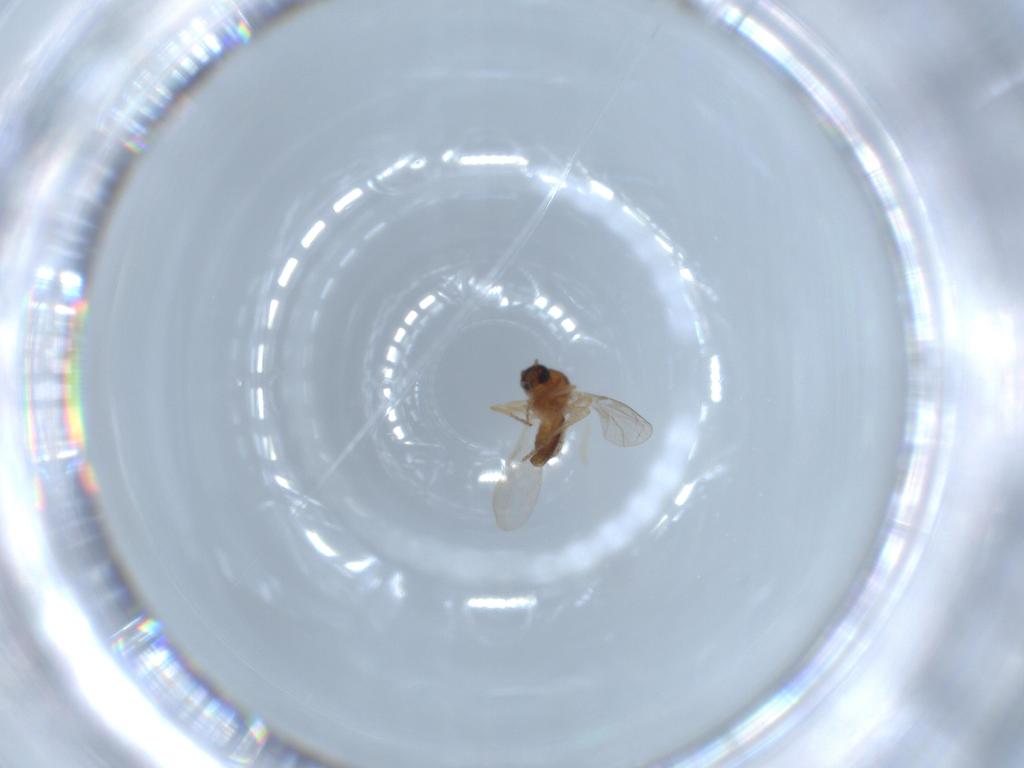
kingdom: Animalia
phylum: Arthropoda
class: Insecta
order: Diptera
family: Ceratopogonidae
